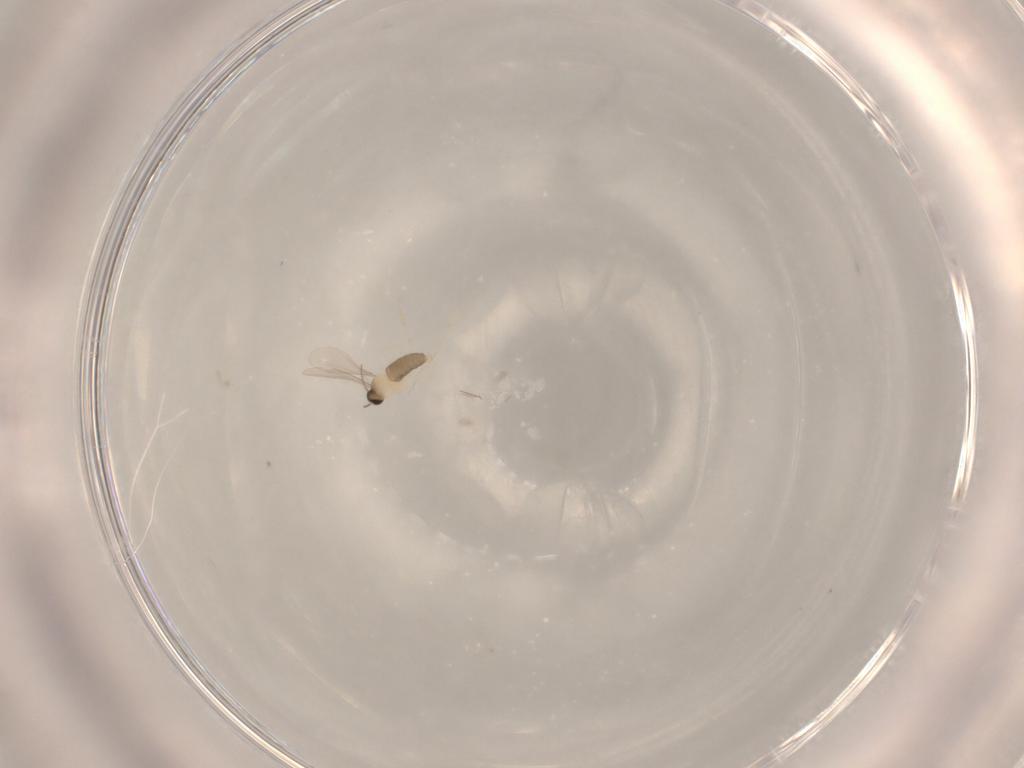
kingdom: Animalia
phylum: Arthropoda
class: Insecta
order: Diptera
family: Cecidomyiidae
